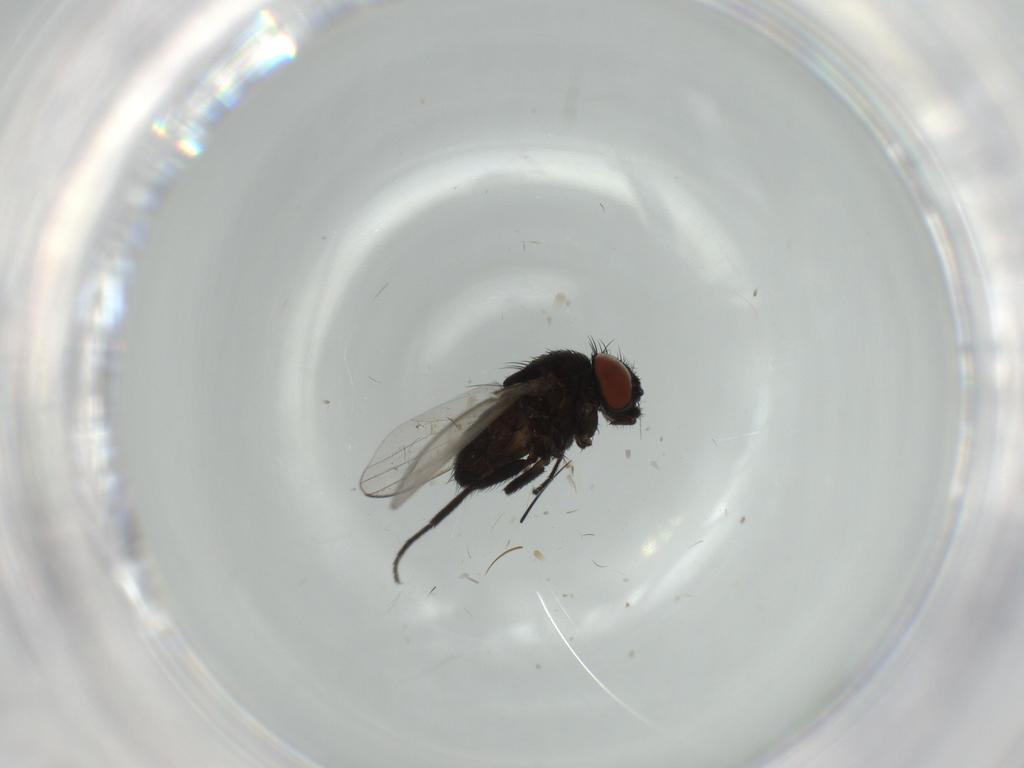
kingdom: Animalia
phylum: Arthropoda
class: Insecta
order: Diptera
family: Milichiidae
